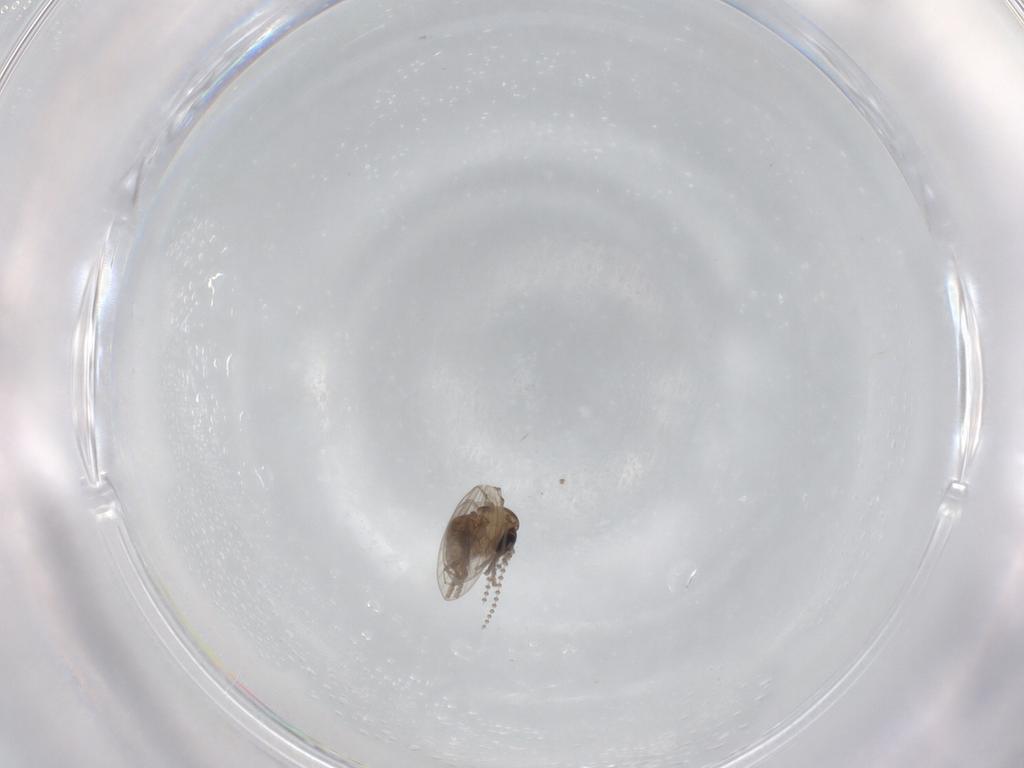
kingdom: Animalia
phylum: Arthropoda
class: Insecta
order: Diptera
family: Psychodidae
